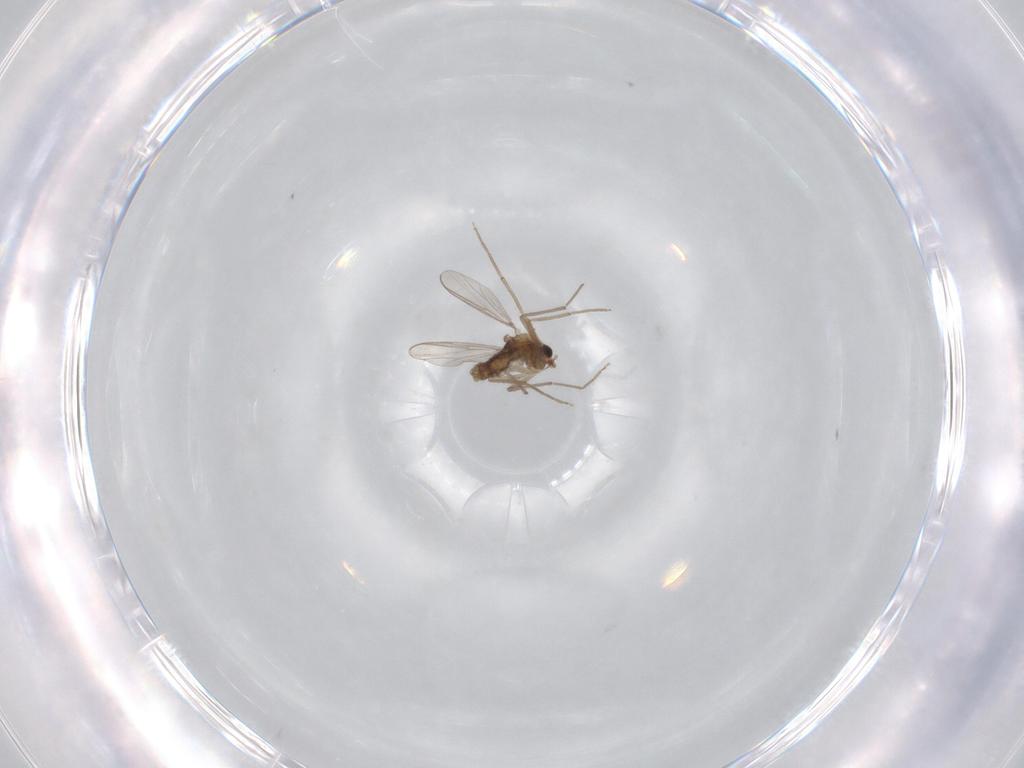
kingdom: Animalia
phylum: Arthropoda
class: Insecta
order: Diptera
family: Chironomidae
